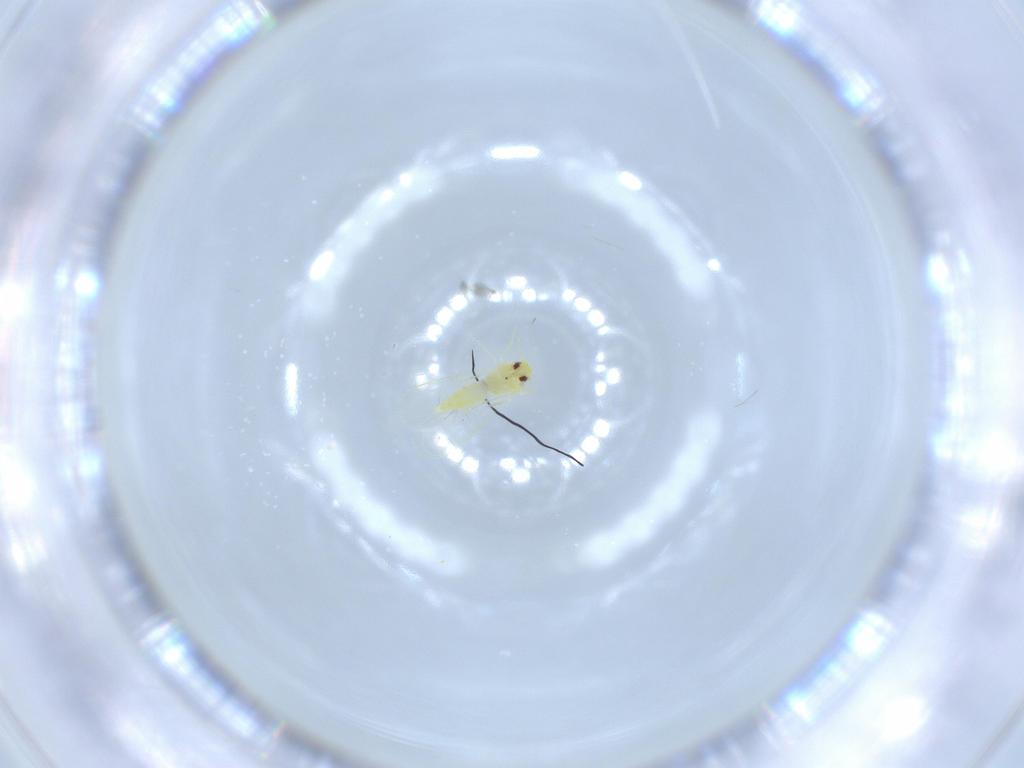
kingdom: Animalia
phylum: Arthropoda
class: Insecta
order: Hemiptera
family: Aleyrodidae
